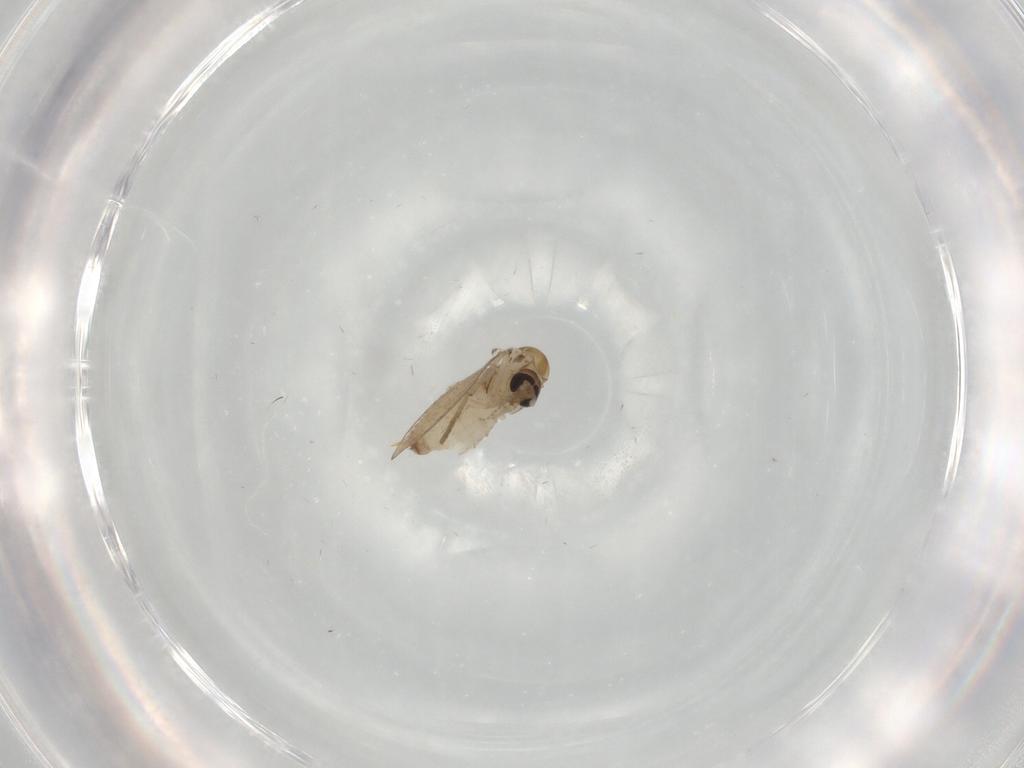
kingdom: Animalia
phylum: Arthropoda
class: Insecta
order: Diptera
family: Psychodidae
